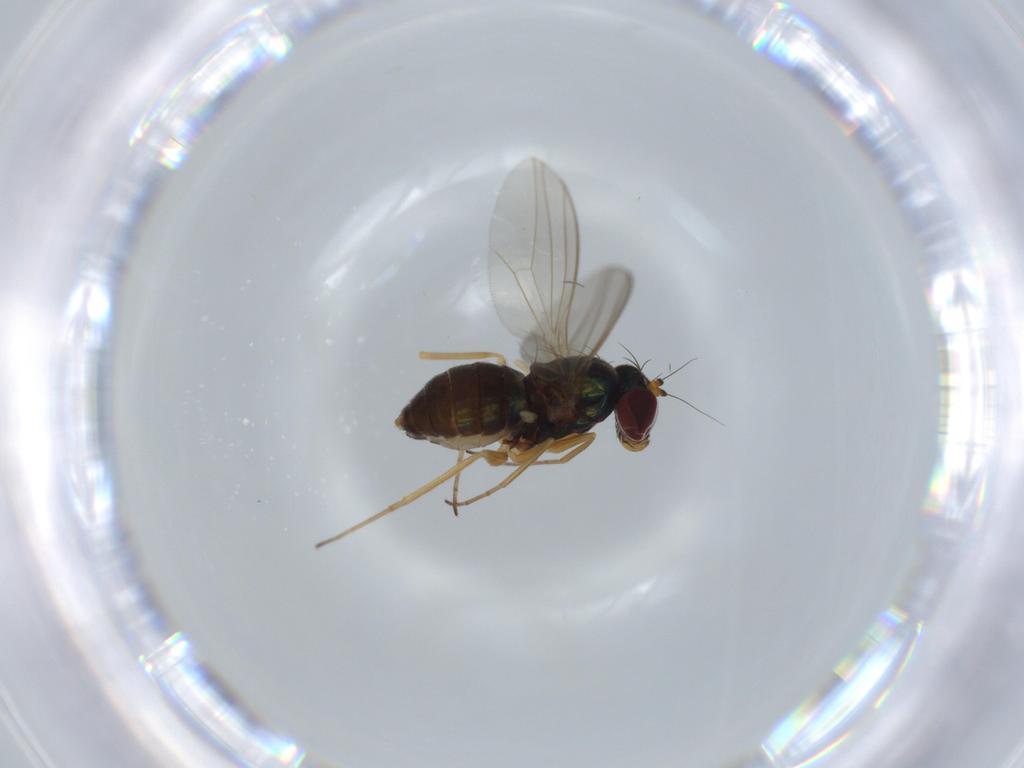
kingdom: Animalia
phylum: Arthropoda
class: Insecta
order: Diptera
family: Dolichopodidae
